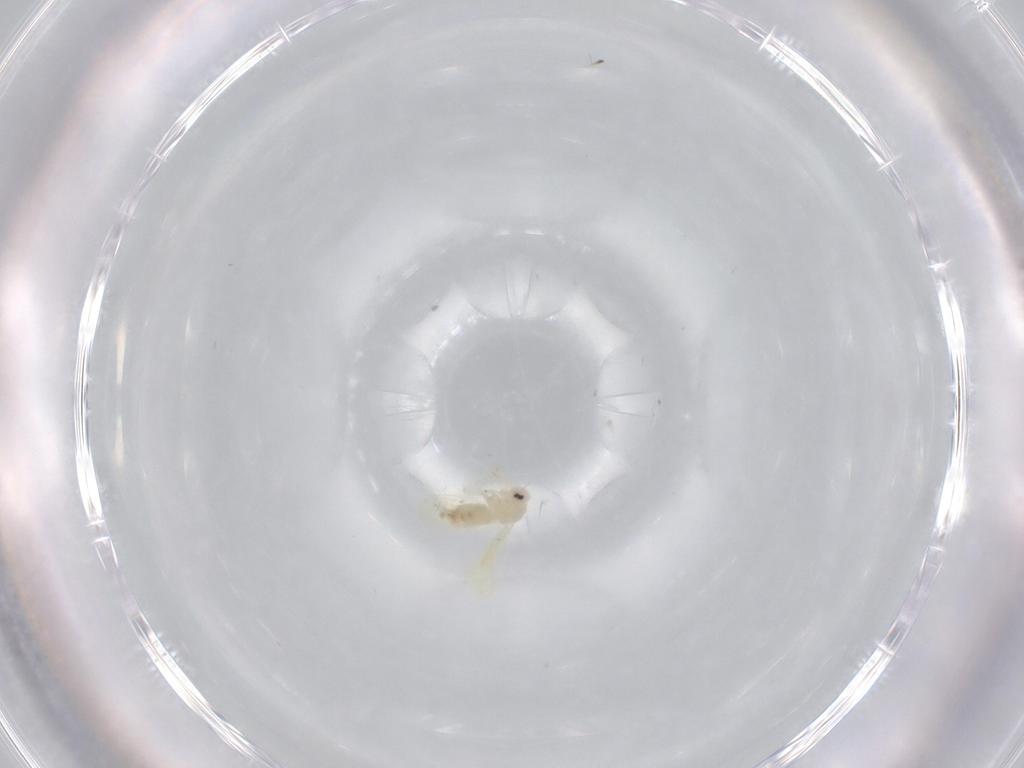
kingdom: Animalia
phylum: Arthropoda
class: Insecta
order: Hemiptera
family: Aleyrodidae
